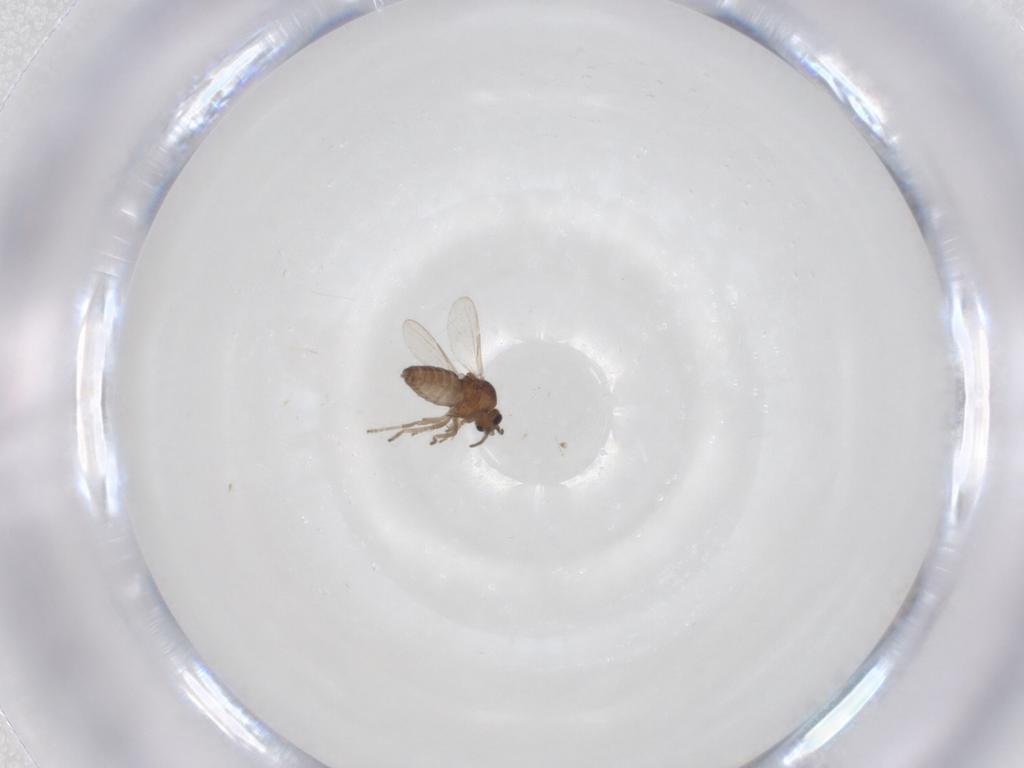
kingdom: Animalia
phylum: Arthropoda
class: Insecta
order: Diptera
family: Ceratopogonidae
